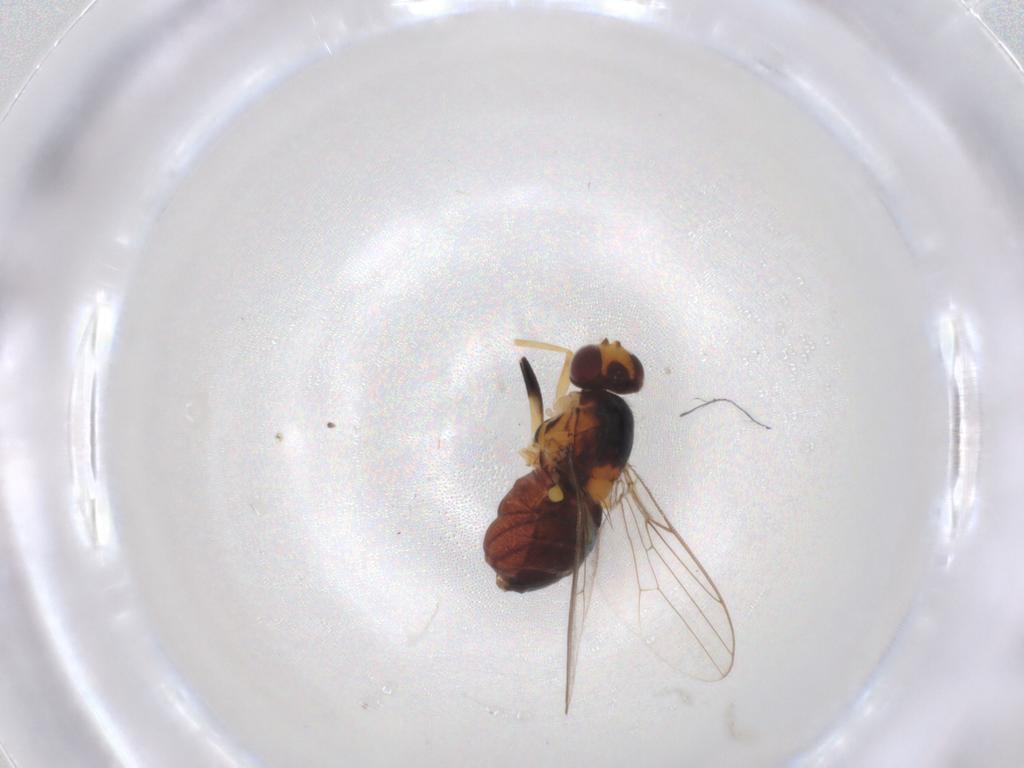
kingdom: Animalia
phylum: Arthropoda
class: Insecta
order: Diptera
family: Chloropidae
